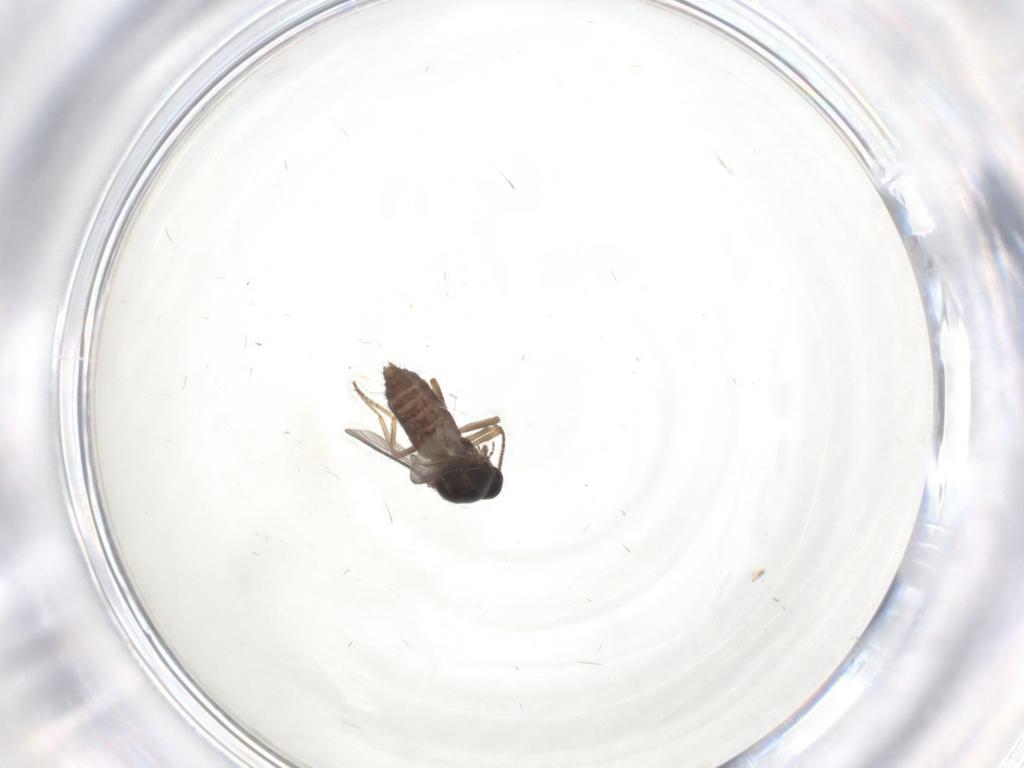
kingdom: Animalia
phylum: Arthropoda
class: Insecta
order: Diptera
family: Ceratopogonidae
